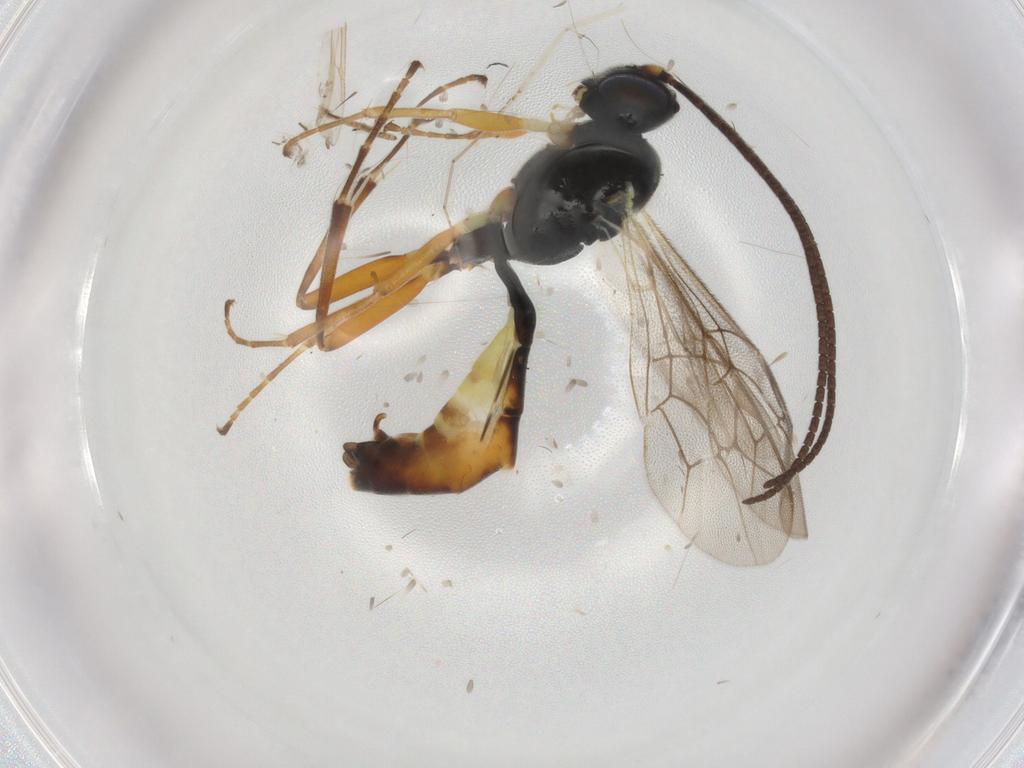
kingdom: Animalia
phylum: Arthropoda
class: Insecta
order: Hymenoptera
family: Ichneumonidae
